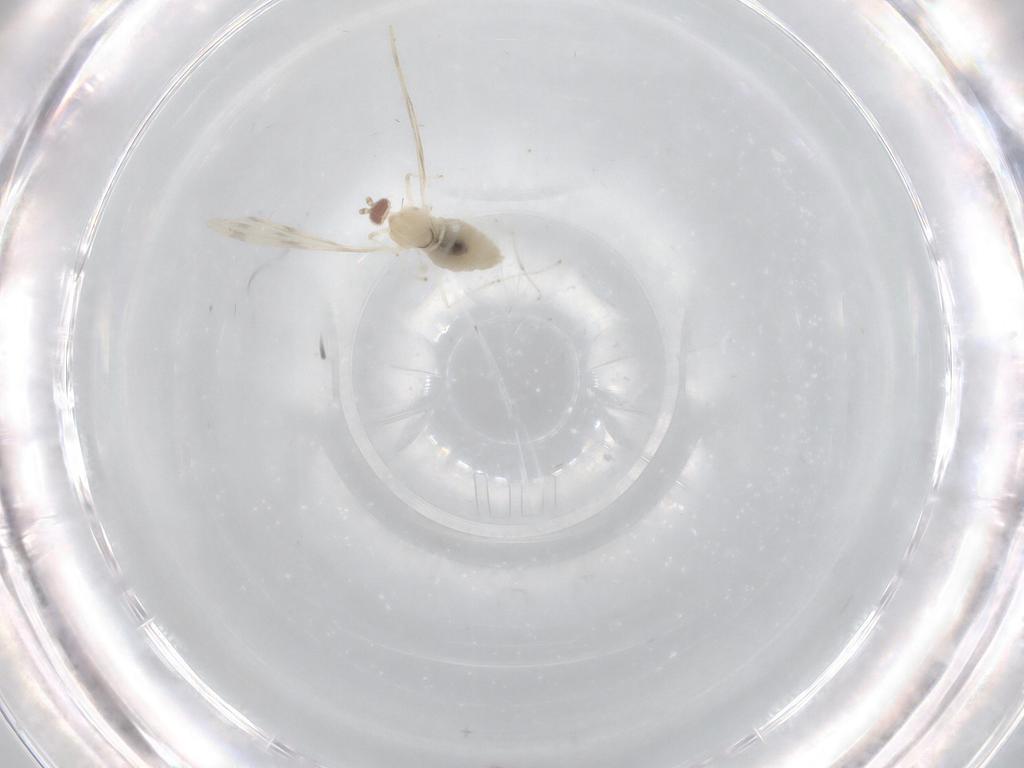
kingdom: Animalia
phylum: Arthropoda
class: Insecta
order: Diptera
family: Cecidomyiidae
